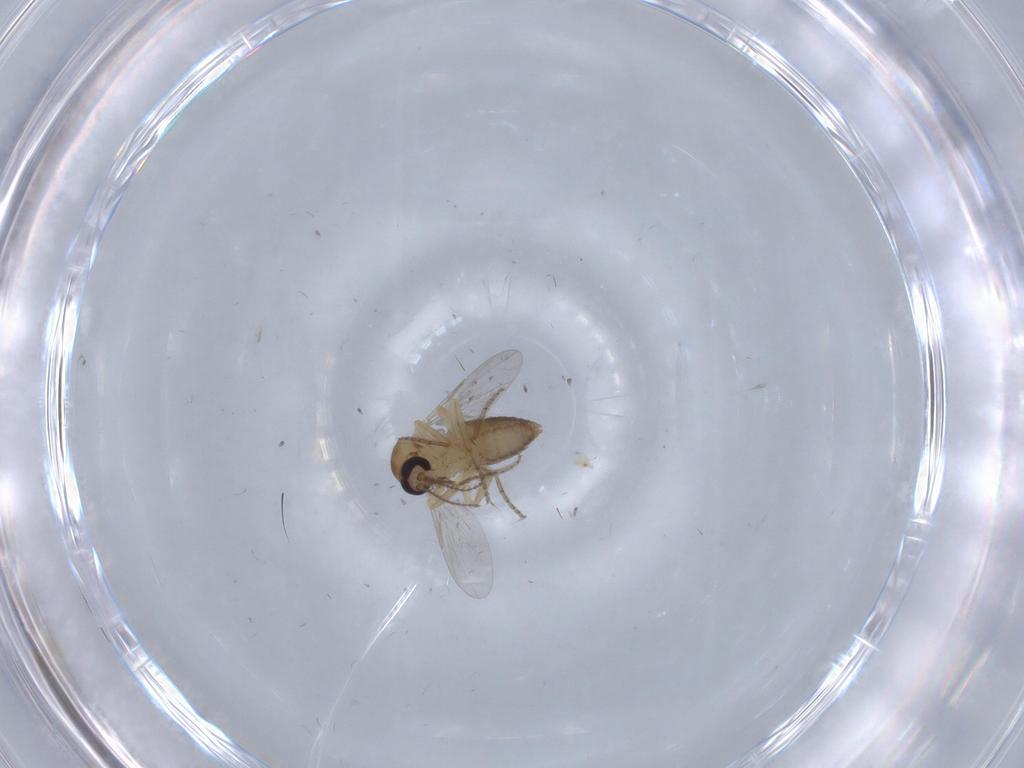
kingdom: Animalia
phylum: Arthropoda
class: Insecta
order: Diptera
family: Ceratopogonidae
